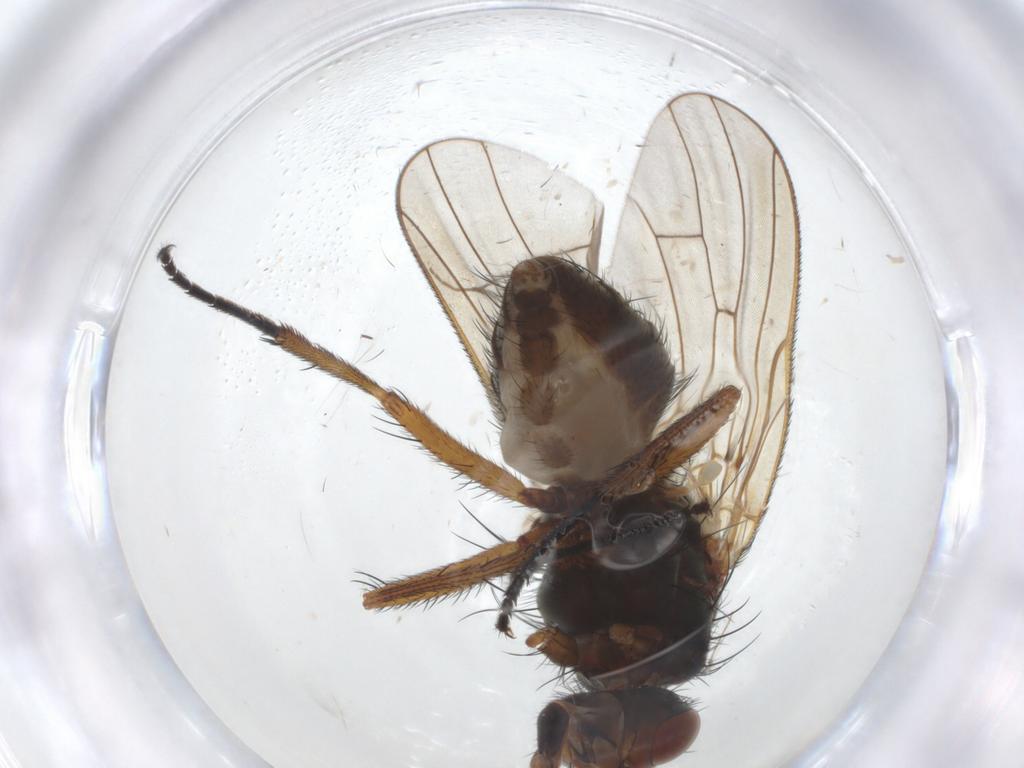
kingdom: Animalia
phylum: Arthropoda
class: Insecta
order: Diptera
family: Anthomyiidae
